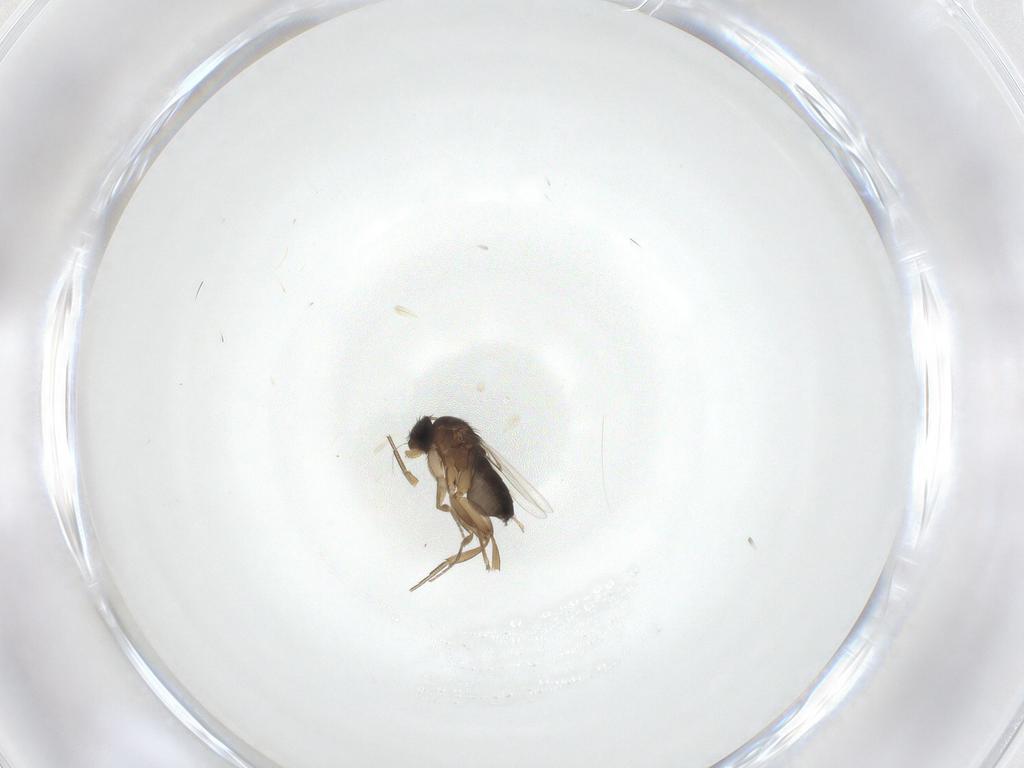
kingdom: Animalia
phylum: Arthropoda
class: Insecta
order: Diptera
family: Phoridae
